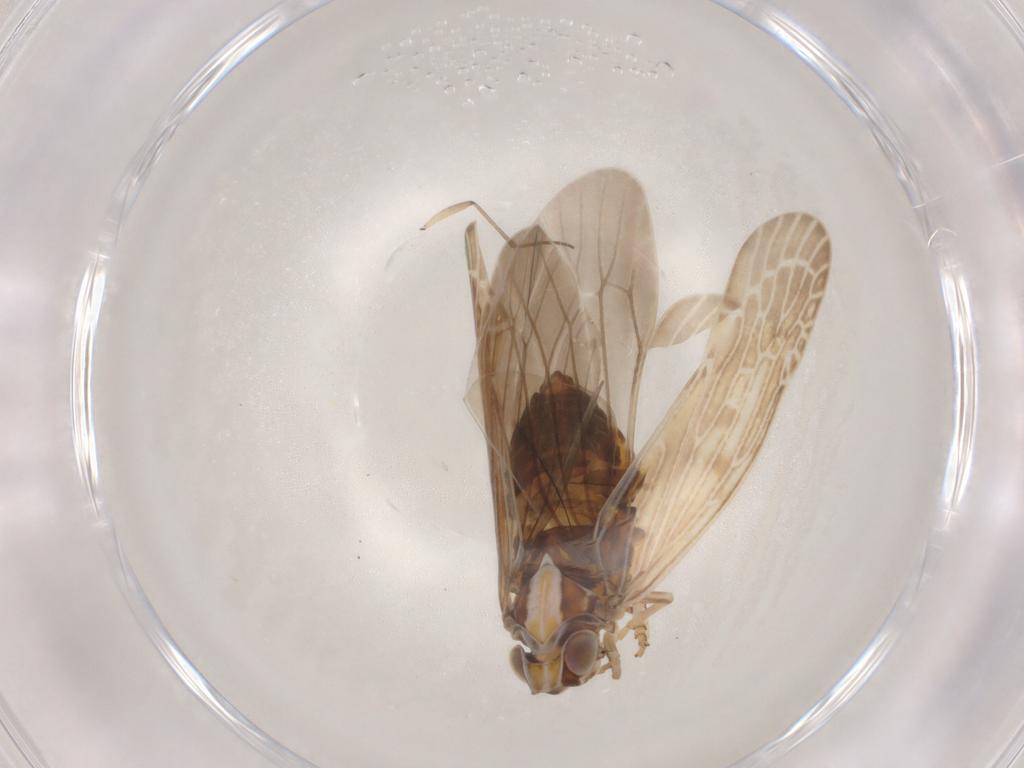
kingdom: Animalia
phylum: Arthropoda
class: Insecta
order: Hemiptera
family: Achilidae
